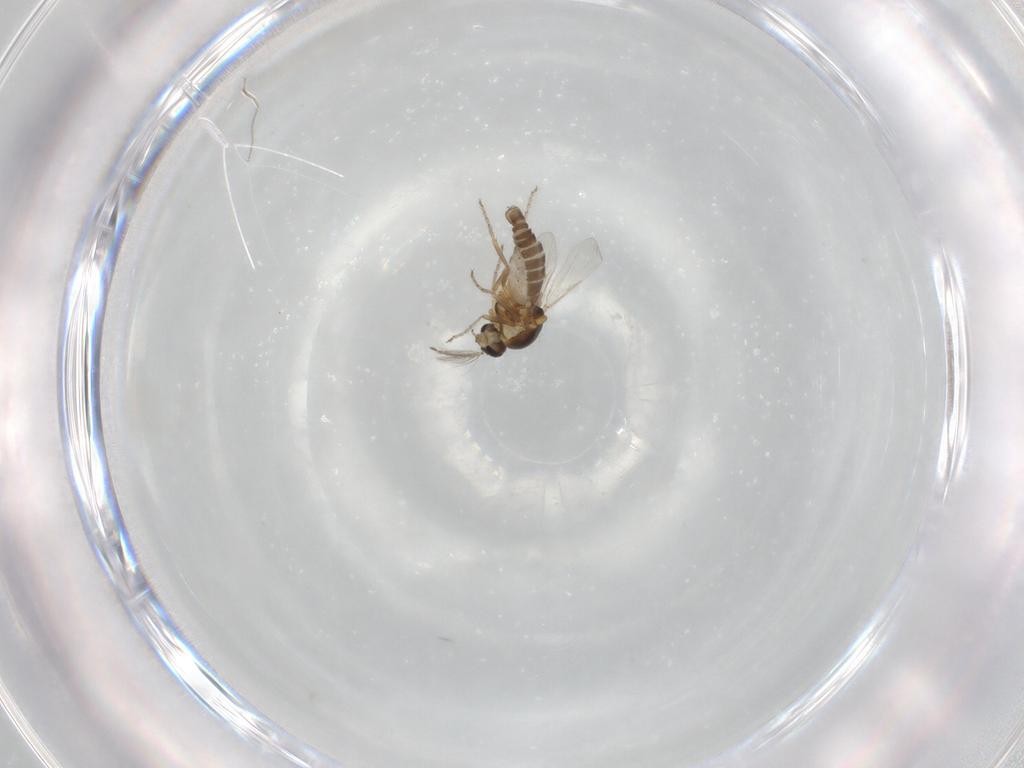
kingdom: Animalia
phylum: Arthropoda
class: Insecta
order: Diptera
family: Ceratopogonidae
